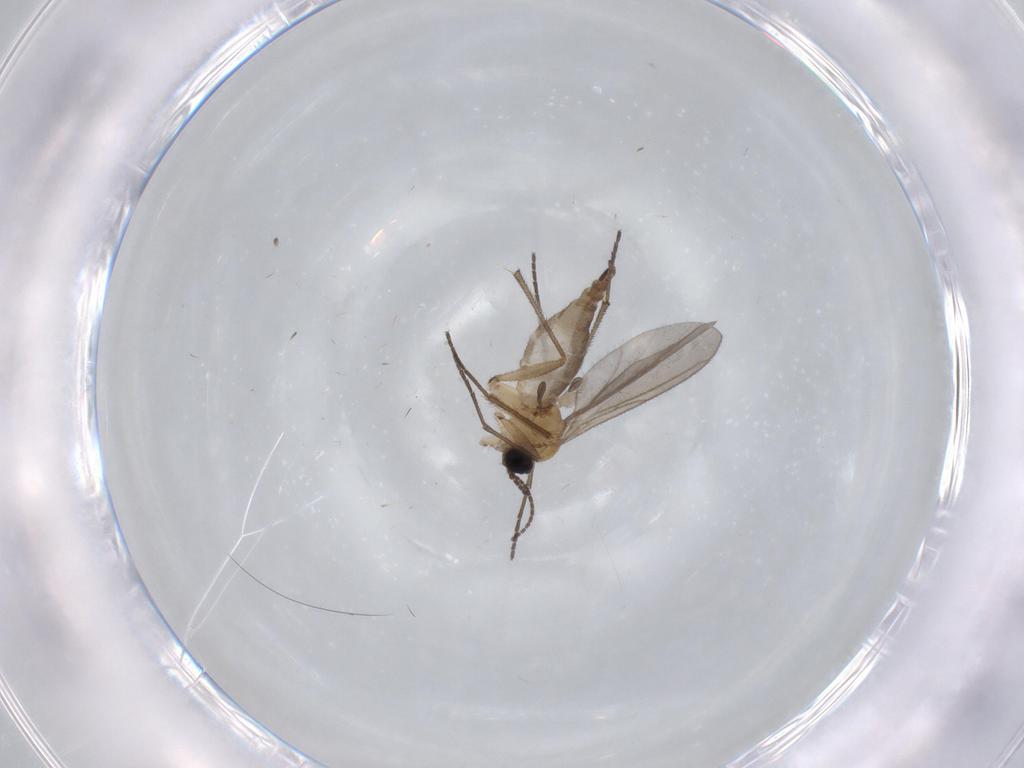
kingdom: Animalia
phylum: Arthropoda
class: Insecta
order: Diptera
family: Sciaridae
